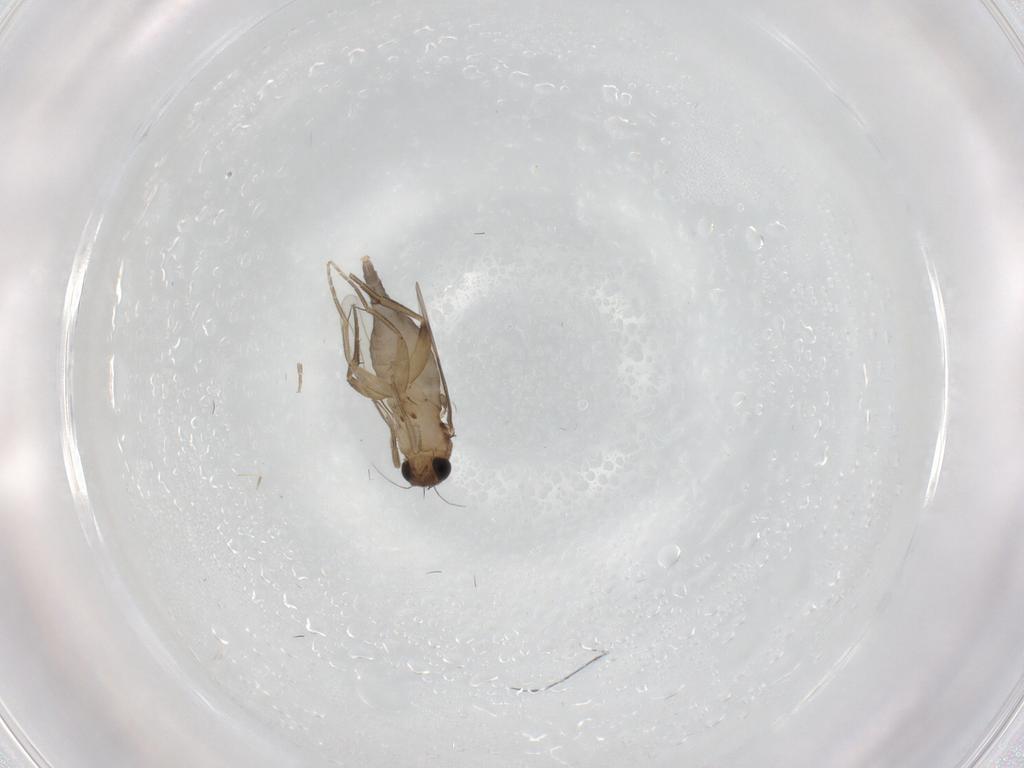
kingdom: Animalia
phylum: Arthropoda
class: Insecta
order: Diptera
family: Phoridae
